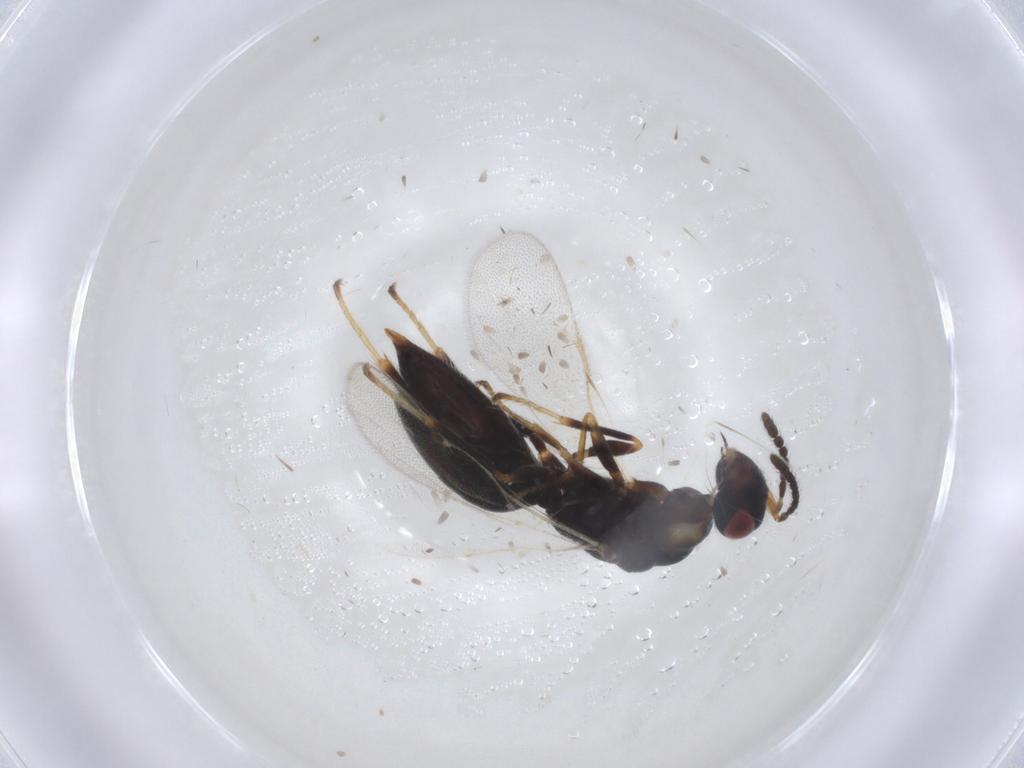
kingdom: Animalia
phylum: Arthropoda
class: Insecta
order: Hymenoptera
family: Eurytomidae
